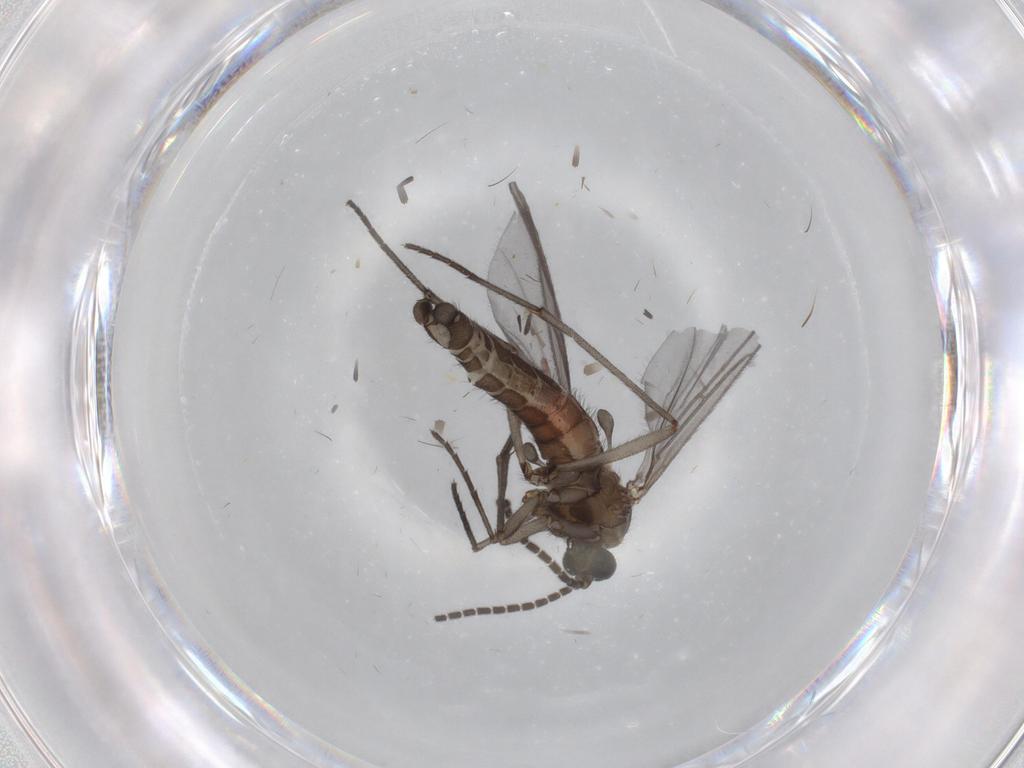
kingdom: Animalia
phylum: Arthropoda
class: Insecta
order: Diptera
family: Sciaridae
